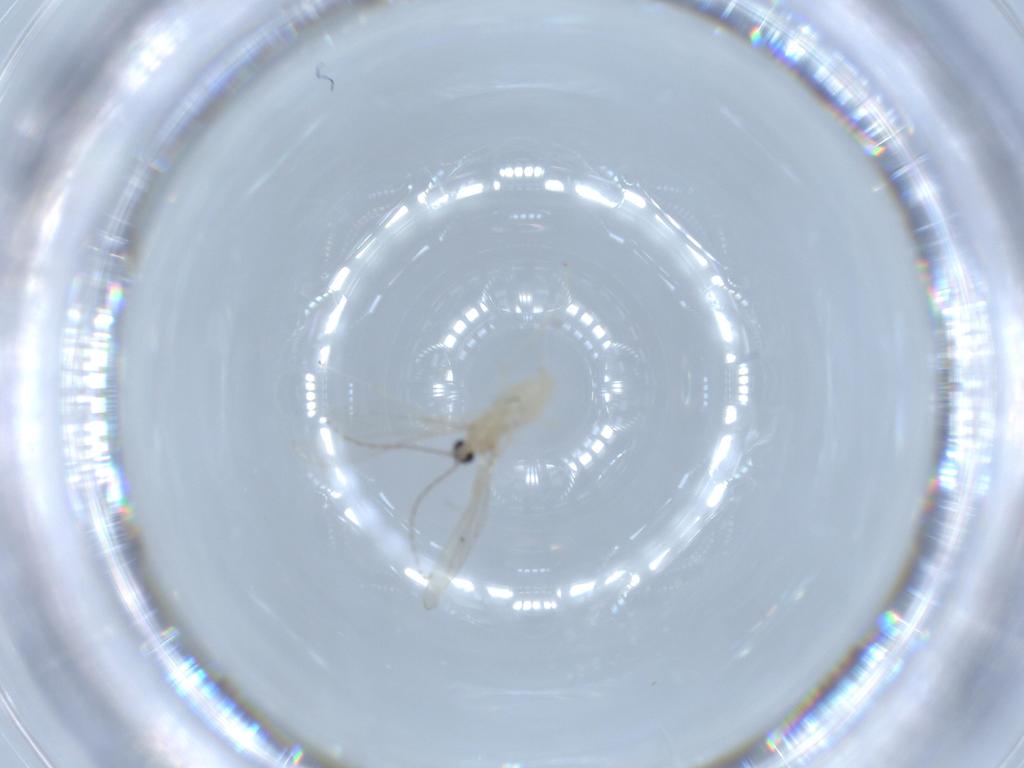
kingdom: Animalia
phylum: Arthropoda
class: Insecta
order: Diptera
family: Cecidomyiidae
